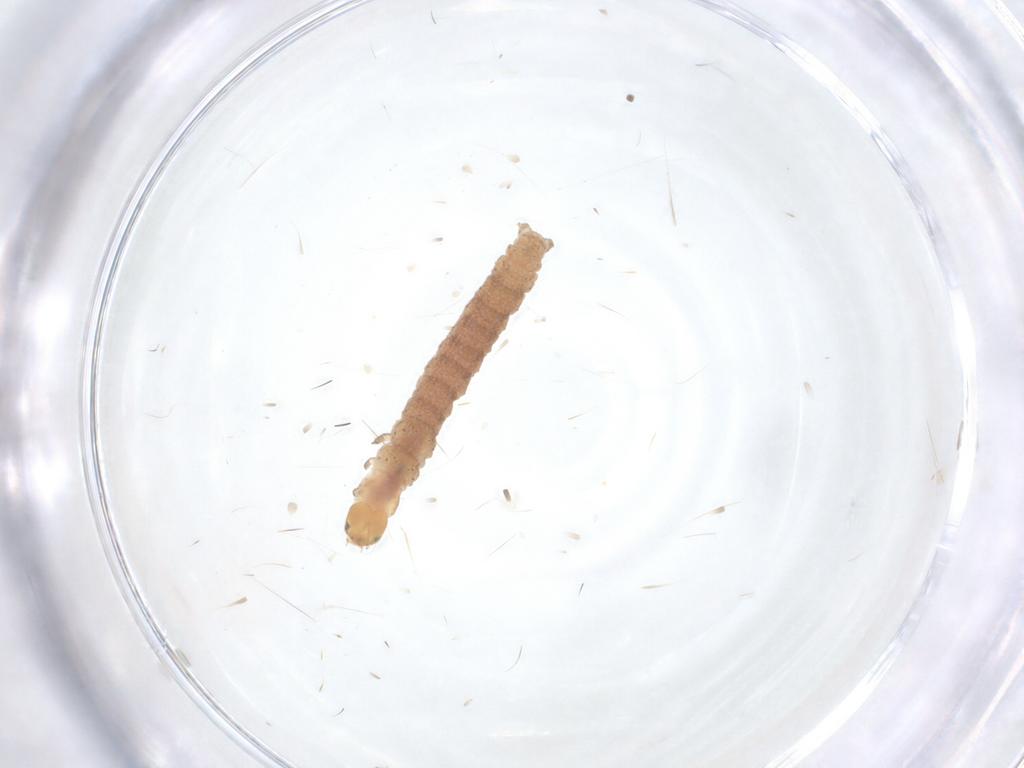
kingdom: Animalia
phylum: Arthropoda
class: Insecta
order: Lepidoptera
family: Gelechiidae
